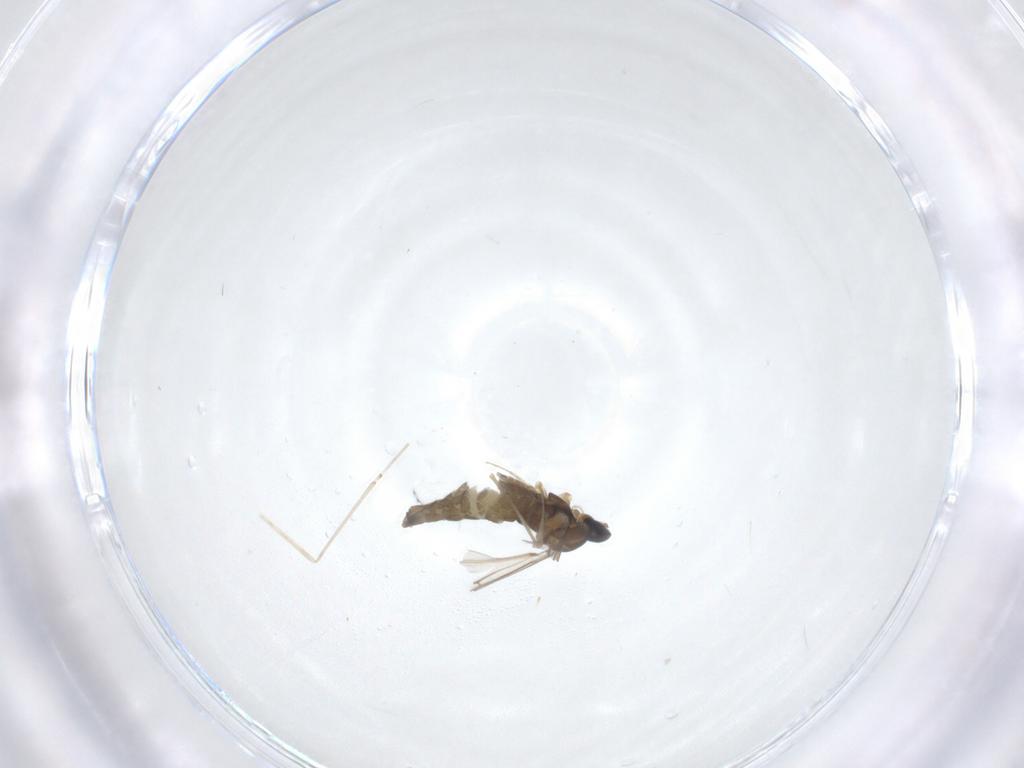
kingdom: Animalia
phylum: Arthropoda
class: Insecta
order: Diptera
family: Cecidomyiidae
